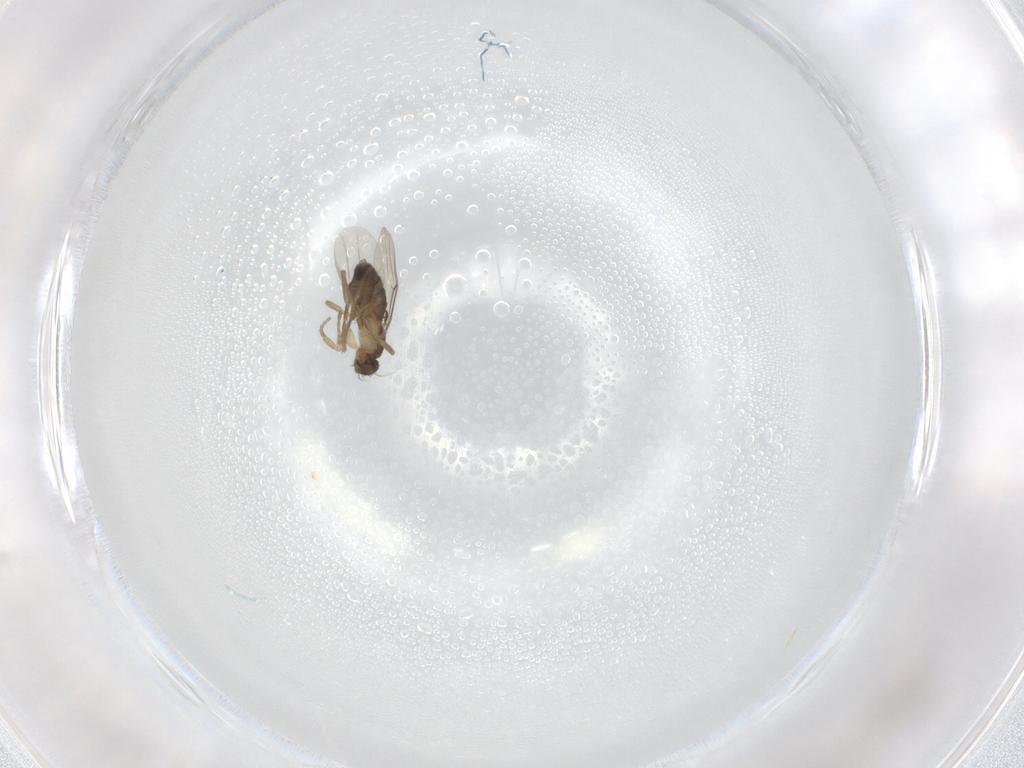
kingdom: Animalia
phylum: Arthropoda
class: Insecta
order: Diptera
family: Phoridae
